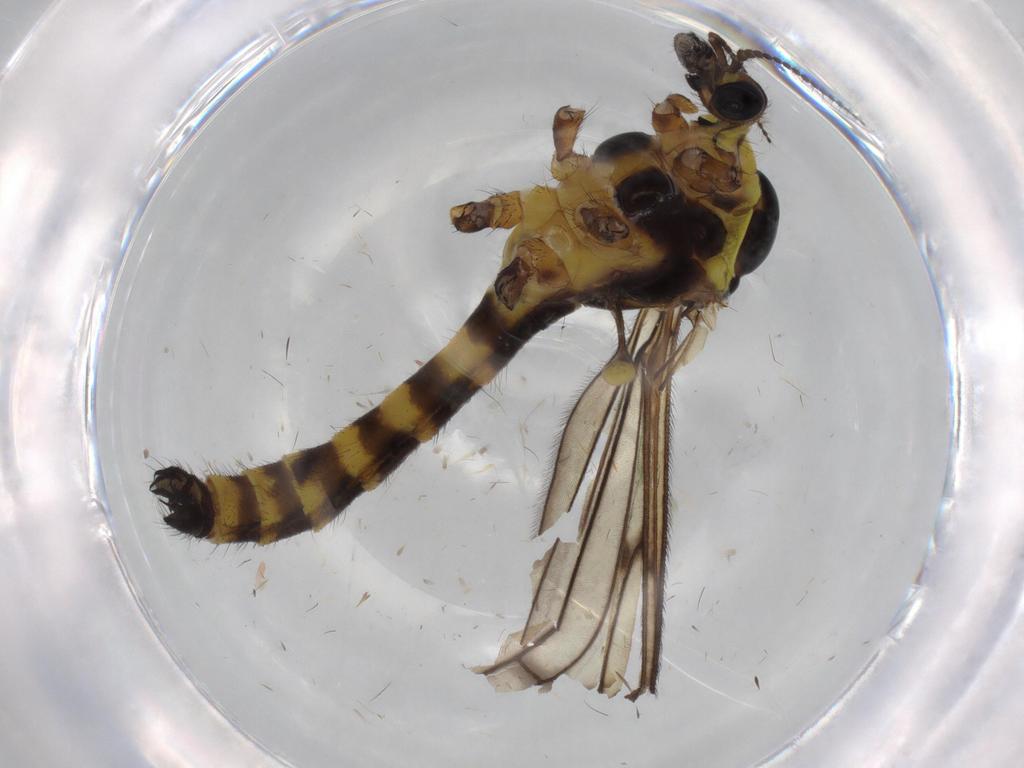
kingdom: Animalia
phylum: Arthropoda
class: Insecta
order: Diptera
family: Limoniidae
